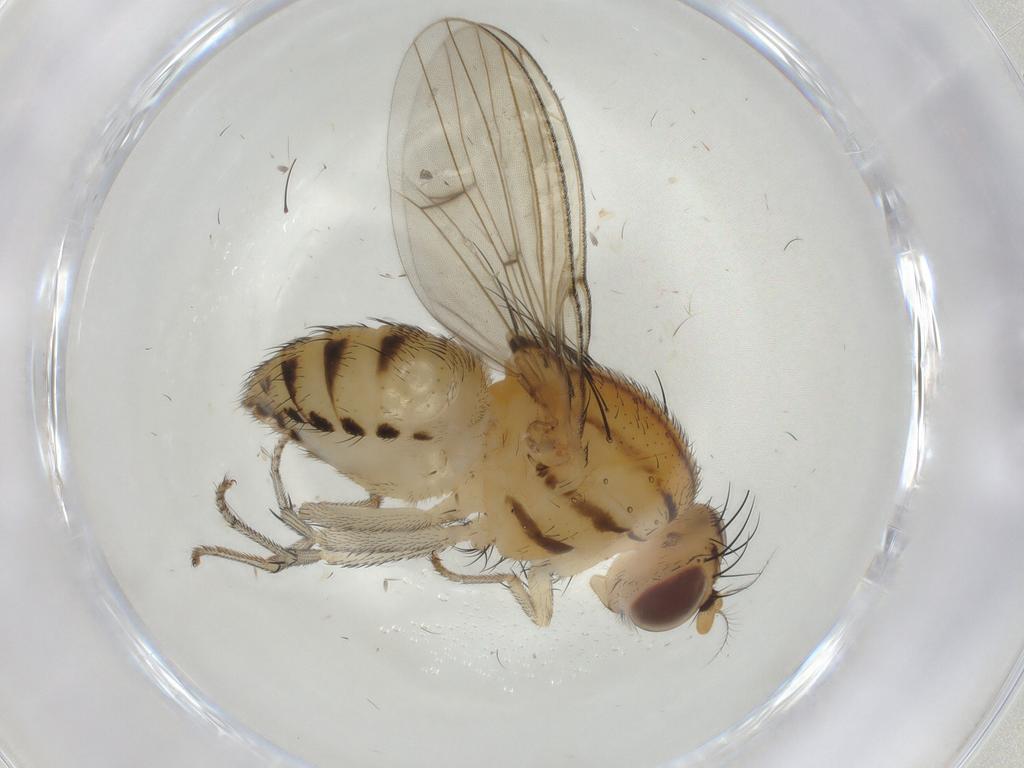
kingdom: Animalia
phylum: Arthropoda
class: Insecta
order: Diptera
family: Lauxaniidae
